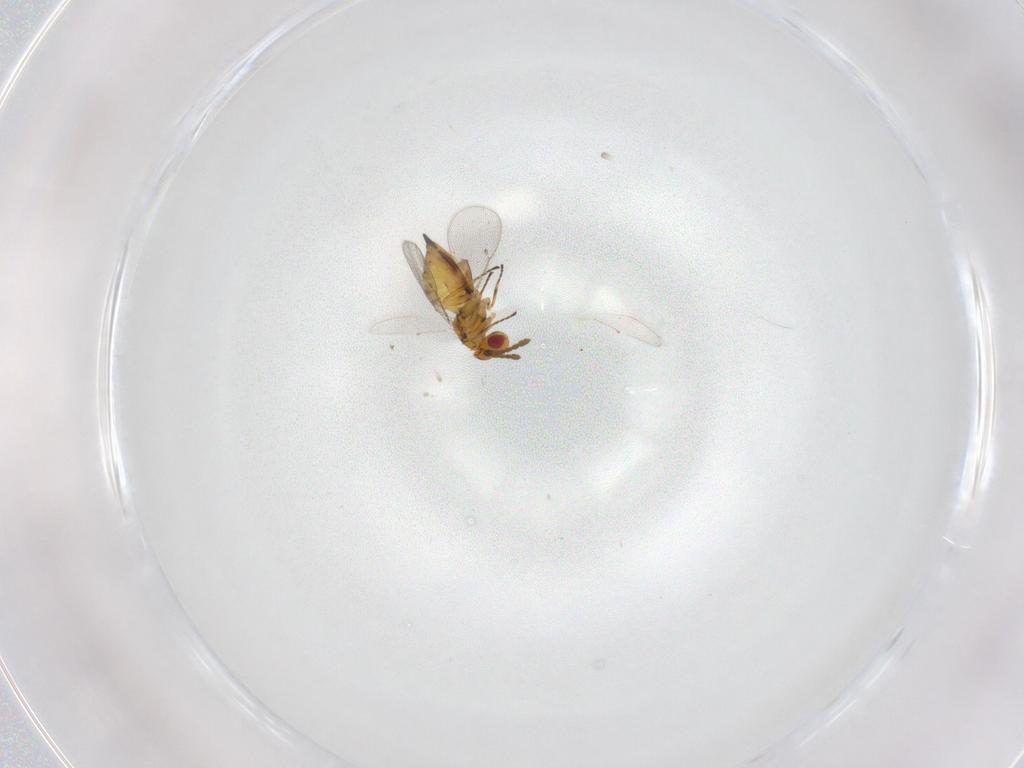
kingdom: Animalia
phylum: Arthropoda
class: Insecta
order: Hymenoptera
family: Eulophidae
